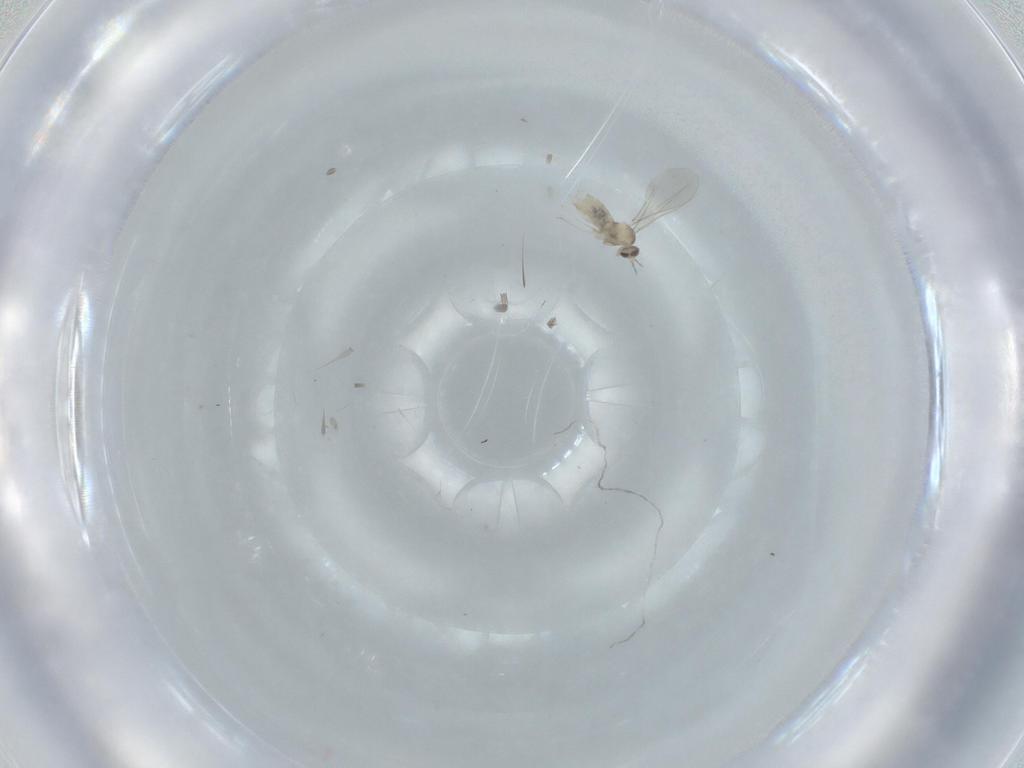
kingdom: Animalia
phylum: Arthropoda
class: Insecta
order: Diptera
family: Cecidomyiidae
